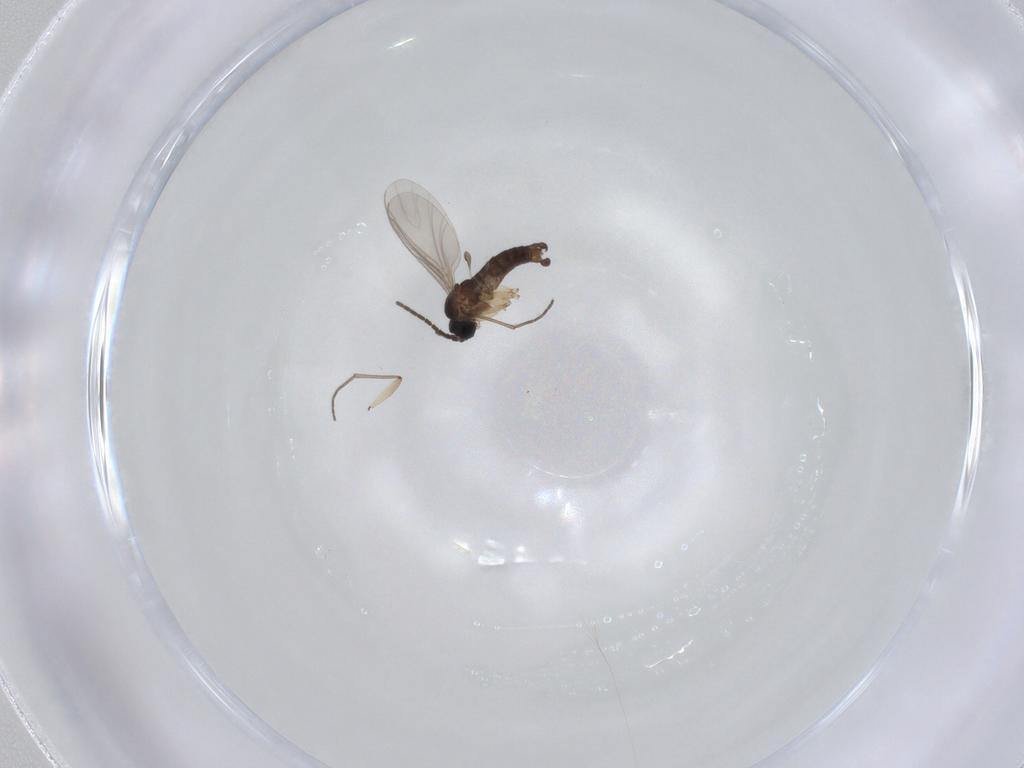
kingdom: Animalia
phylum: Arthropoda
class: Insecta
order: Diptera
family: Sciaridae
